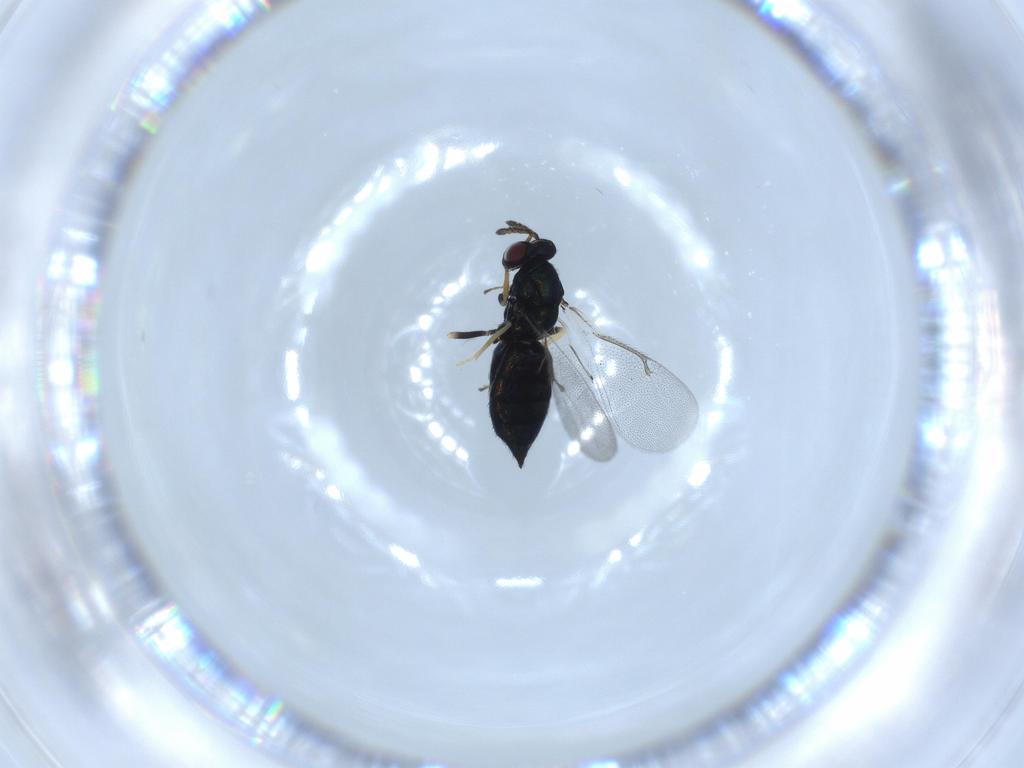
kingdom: Animalia
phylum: Arthropoda
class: Insecta
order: Hymenoptera
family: Eulophidae
